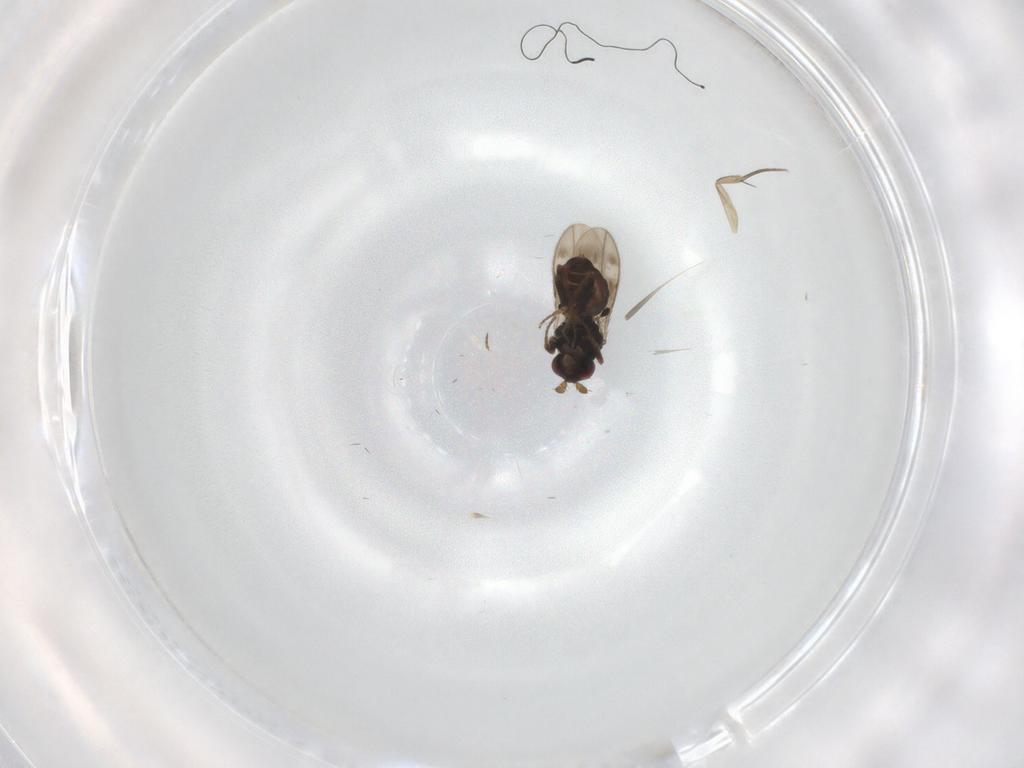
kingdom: Animalia
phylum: Arthropoda
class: Insecta
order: Diptera
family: Sphaeroceridae
